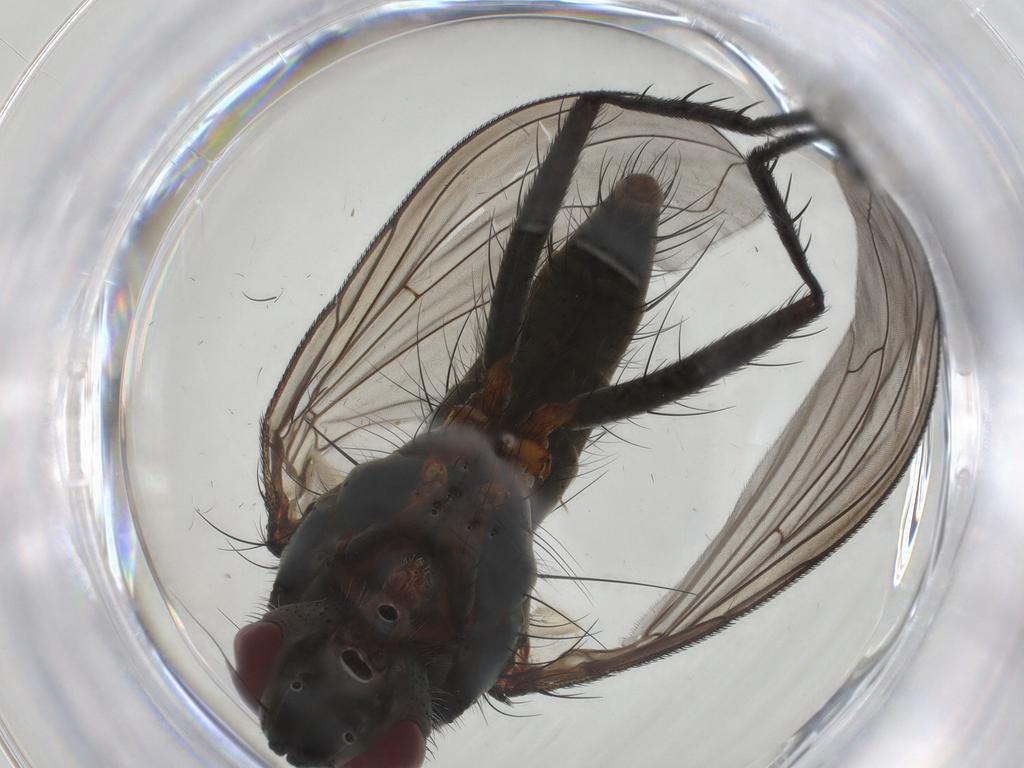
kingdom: Animalia
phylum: Arthropoda
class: Insecta
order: Diptera
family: Tachinidae
